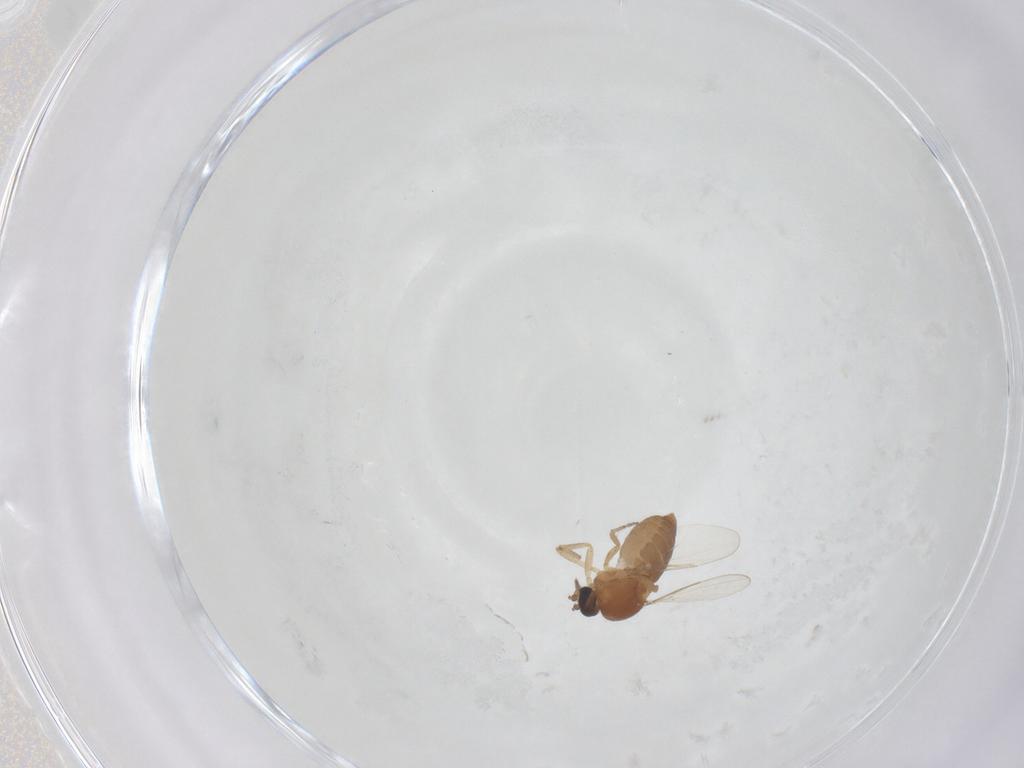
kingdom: Animalia
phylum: Arthropoda
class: Insecta
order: Diptera
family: Ceratopogonidae
